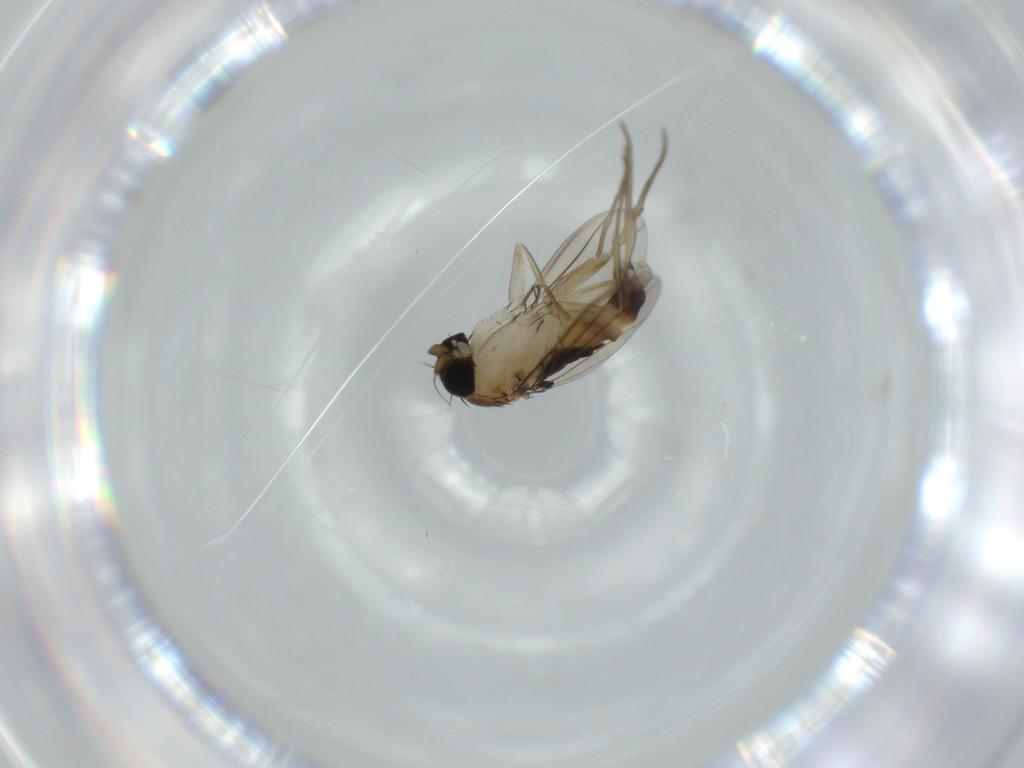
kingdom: Animalia
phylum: Arthropoda
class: Insecta
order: Diptera
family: Phoridae
